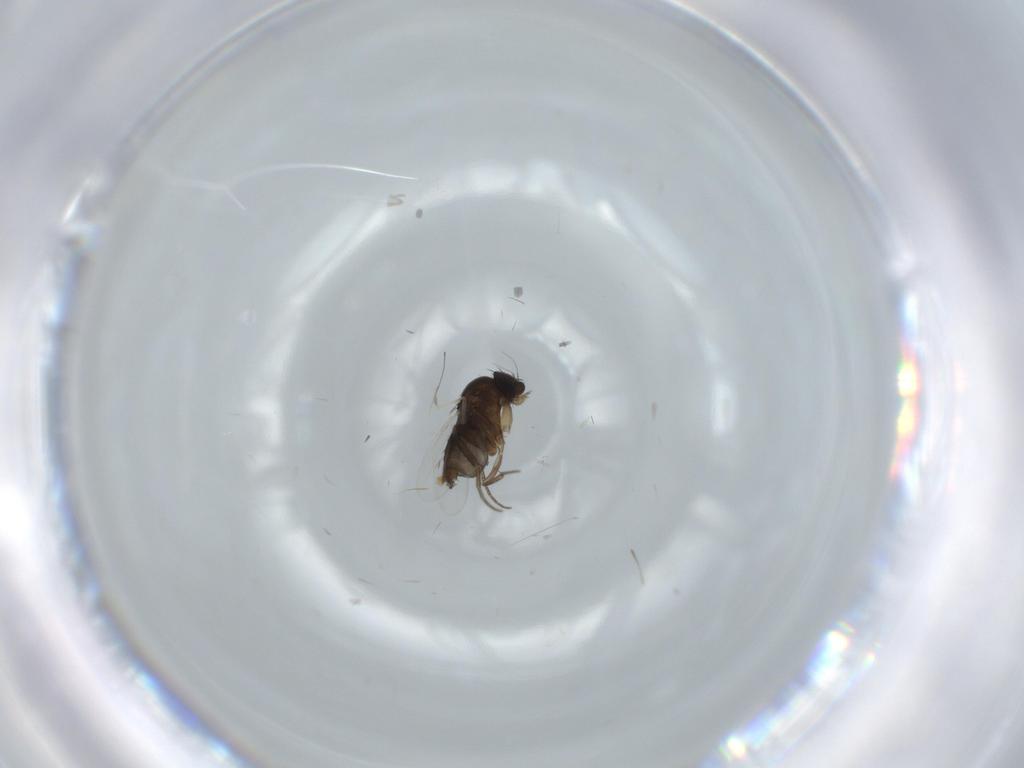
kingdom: Animalia
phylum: Arthropoda
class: Insecta
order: Diptera
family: Phoridae
